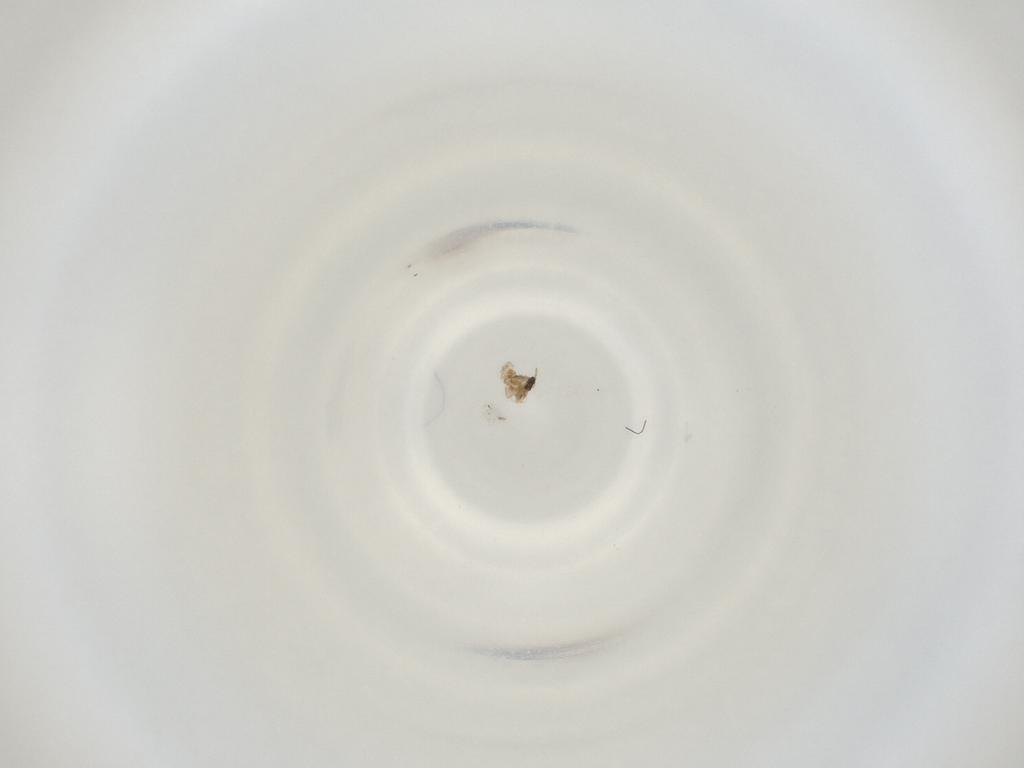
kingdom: Animalia
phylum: Arthropoda
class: Insecta
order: Diptera
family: Cecidomyiidae
